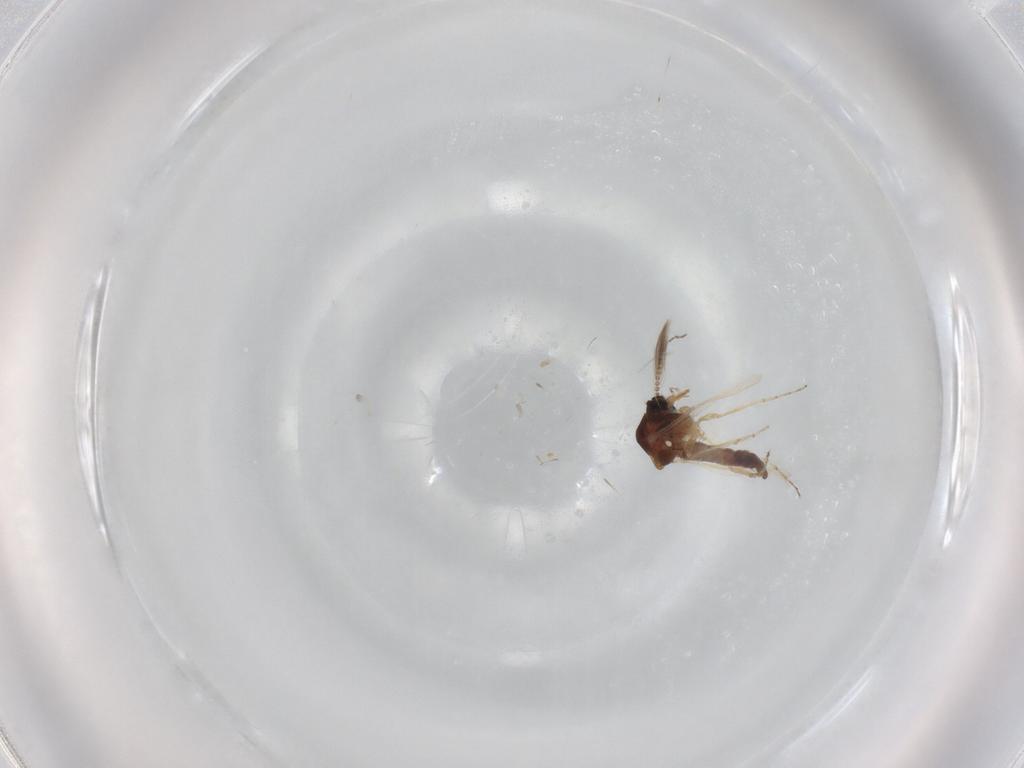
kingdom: Animalia
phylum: Arthropoda
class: Insecta
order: Diptera
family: Ceratopogonidae
